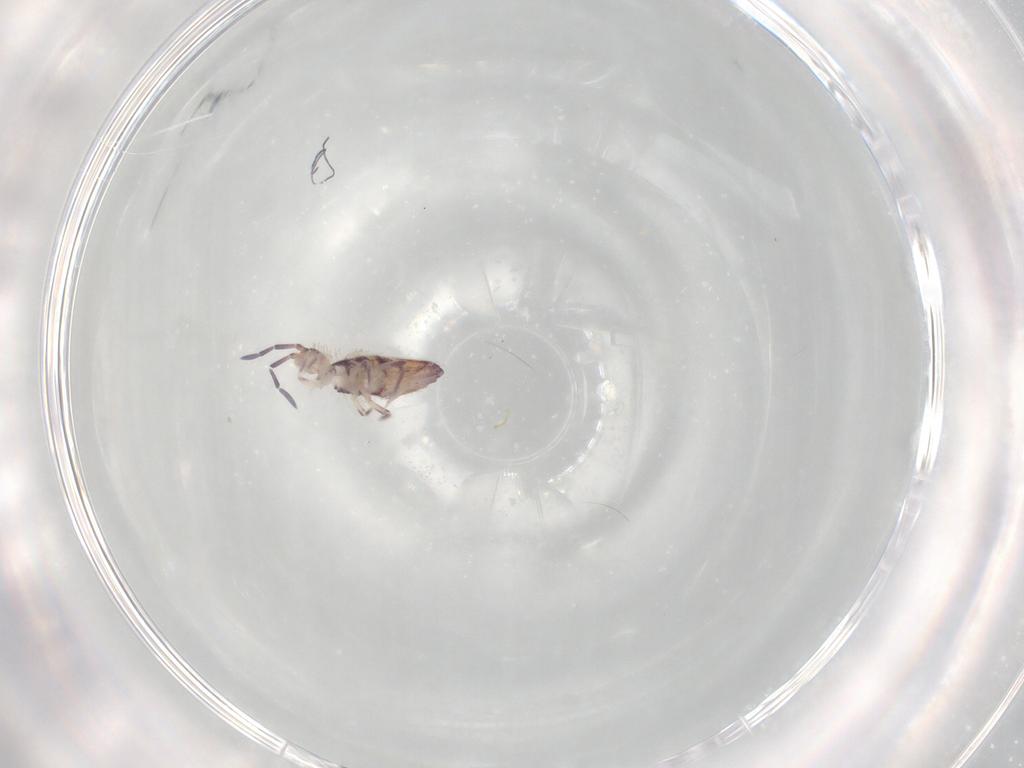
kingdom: Animalia
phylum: Arthropoda
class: Collembola
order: Entomobryomorpha
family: Entomobryidae
